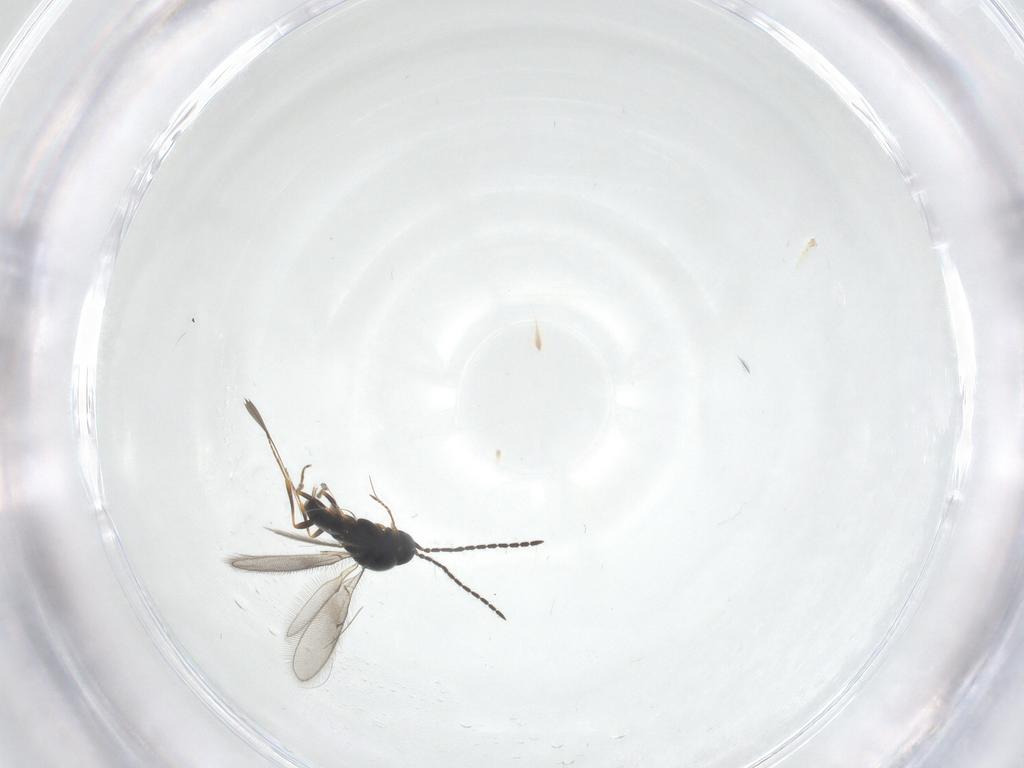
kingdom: Animalia
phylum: Arthropoda
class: Insecta
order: Hymenoptera
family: Scelionidae
